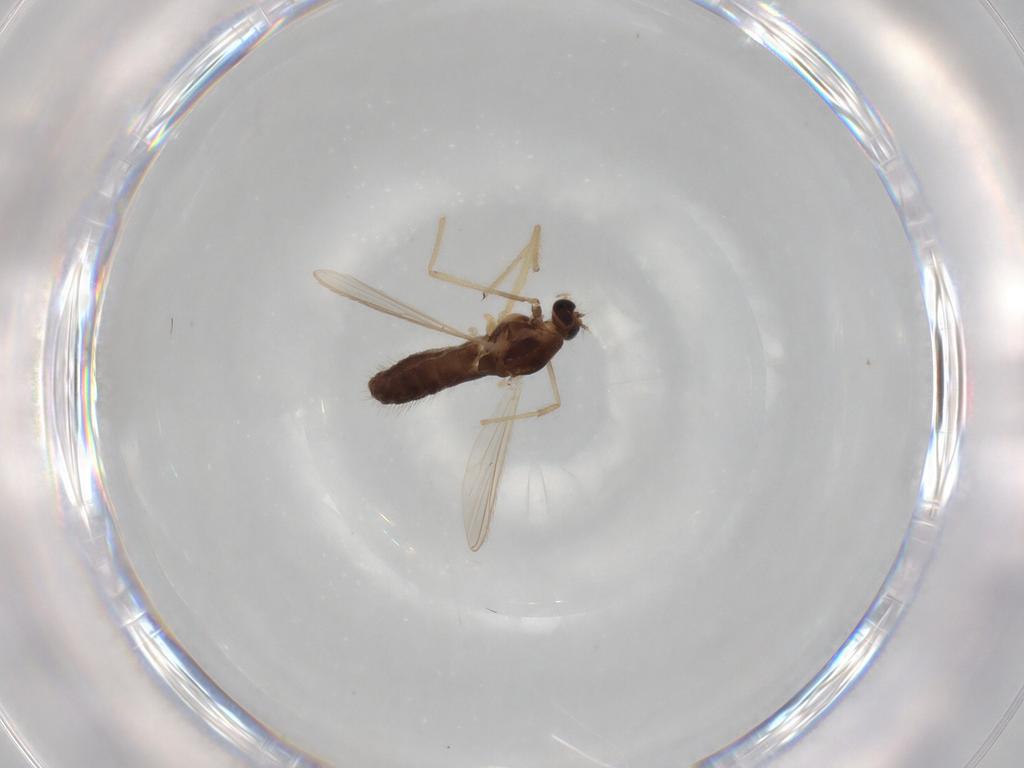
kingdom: Animalia
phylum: Arthropoda
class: Insecta
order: Diptera
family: Chironomidae
